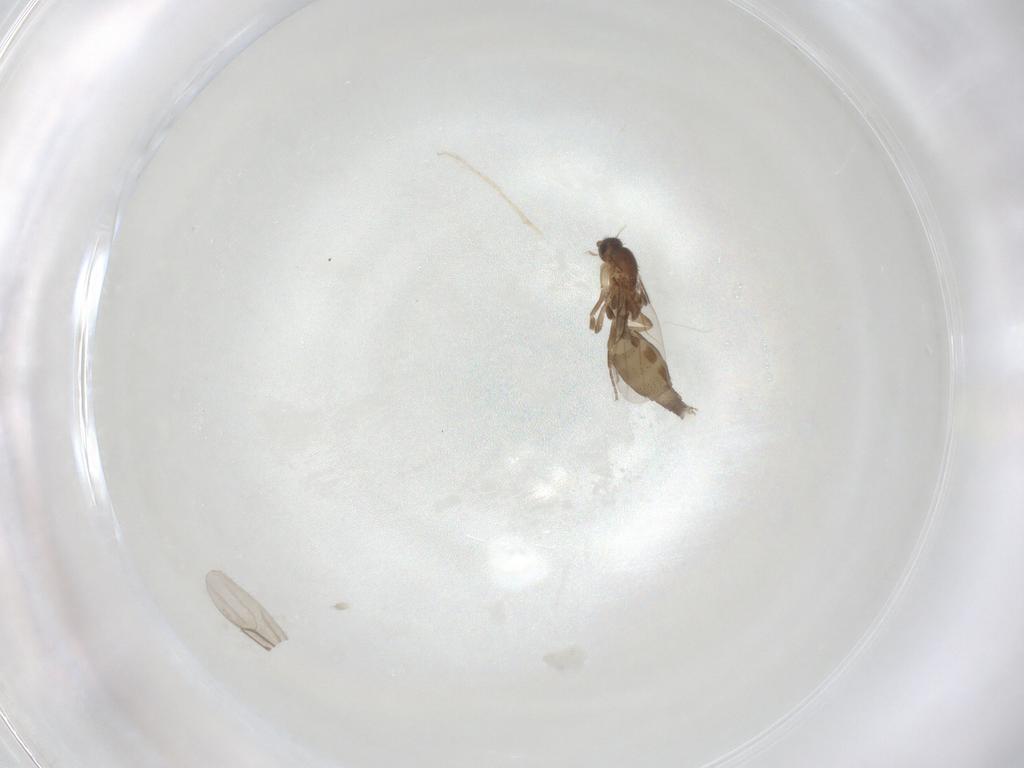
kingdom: Animalia
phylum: Arthropoda
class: Insecta
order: Diptera
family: Phoridae
